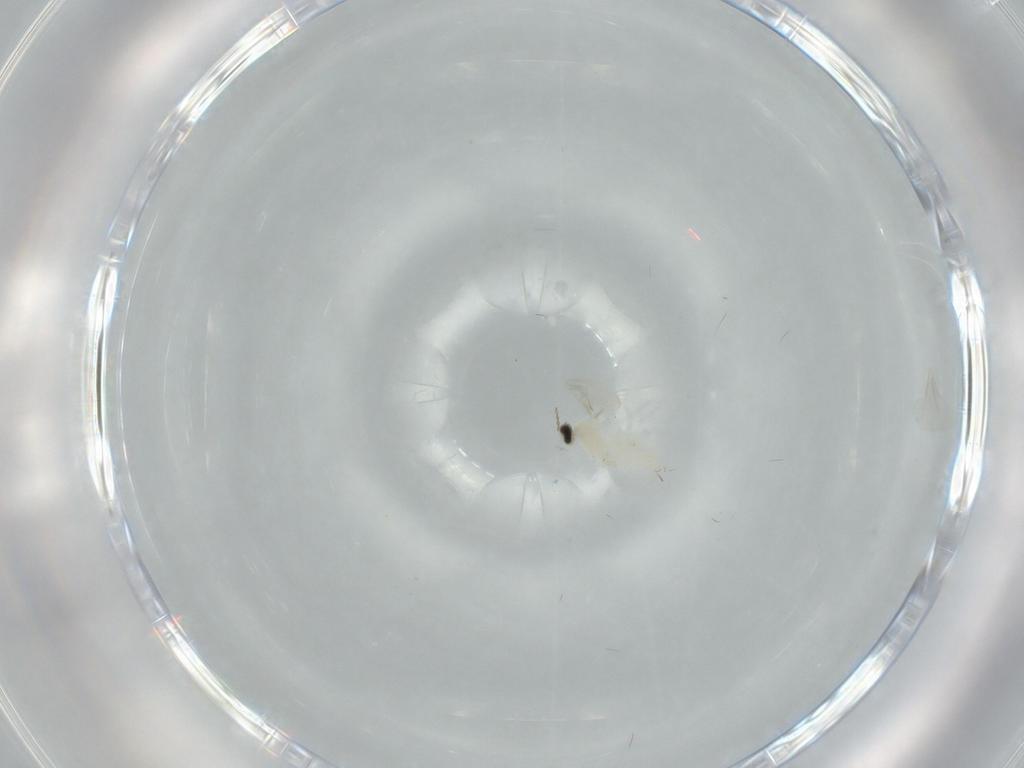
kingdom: Animalia
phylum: Arthropoda
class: Insecta
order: Diptera
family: Cecidomyiidae
